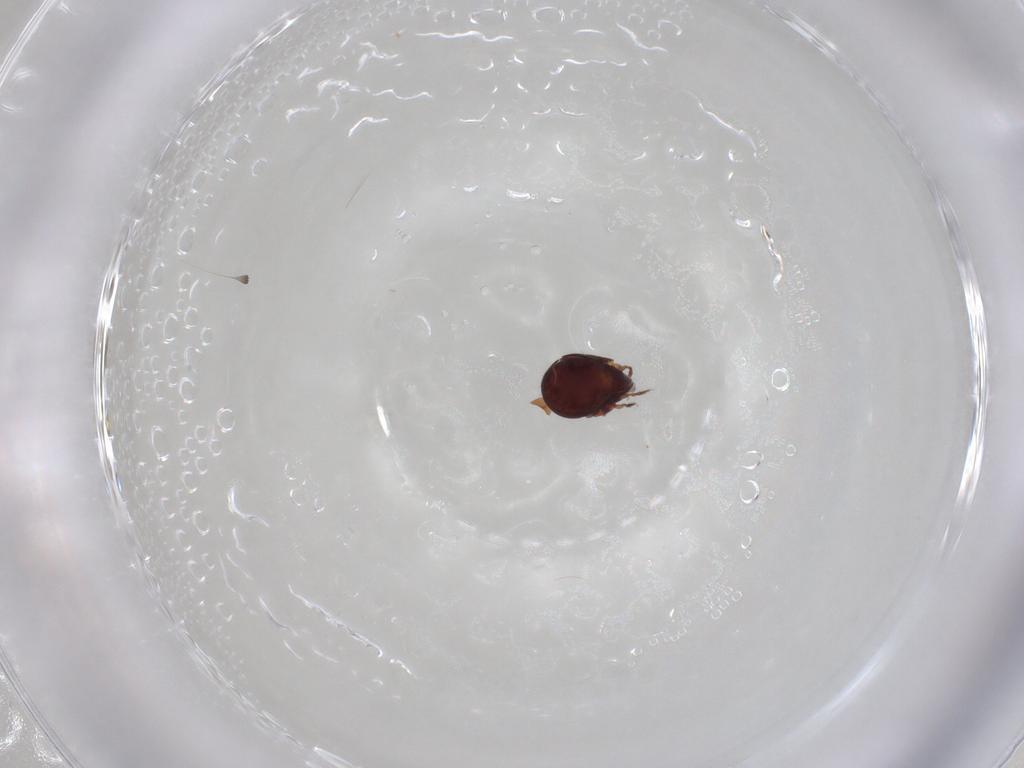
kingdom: Animalia
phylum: Arthropoda
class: Arachnida
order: Sarcoptiformes
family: Humerobatidae
